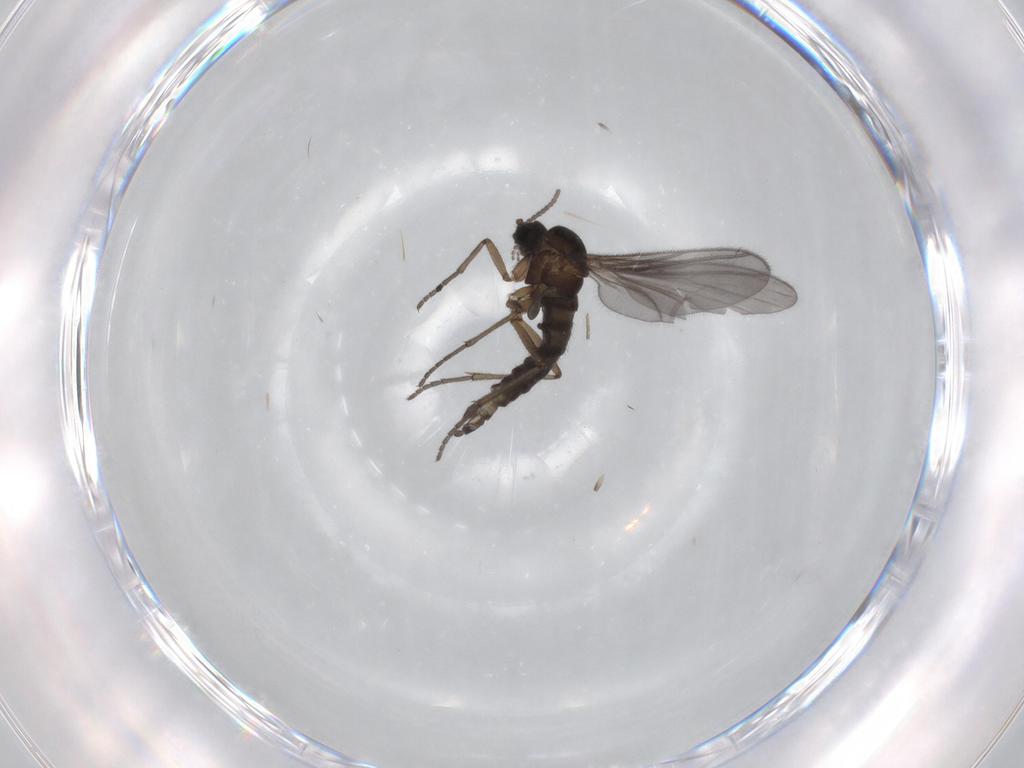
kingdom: Animalia
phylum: Arthropoda
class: Insecta
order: Diptera
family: Sciaridae
